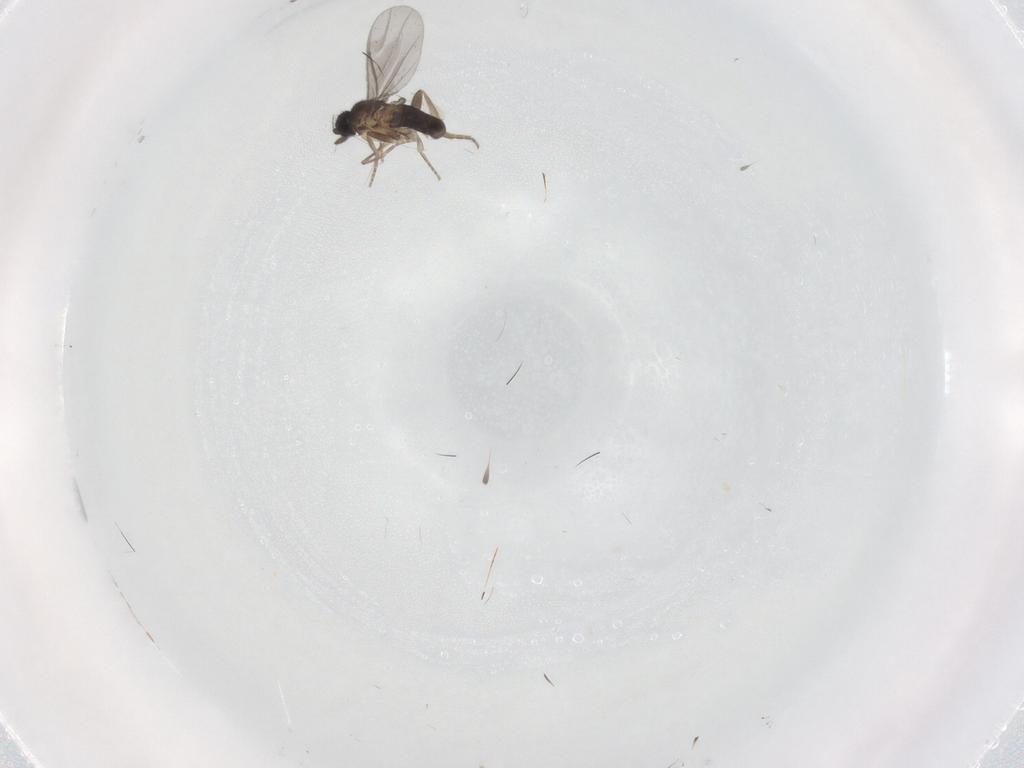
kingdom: Animalia
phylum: Arthropoda
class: Insecta
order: Diptera
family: Phoridae
